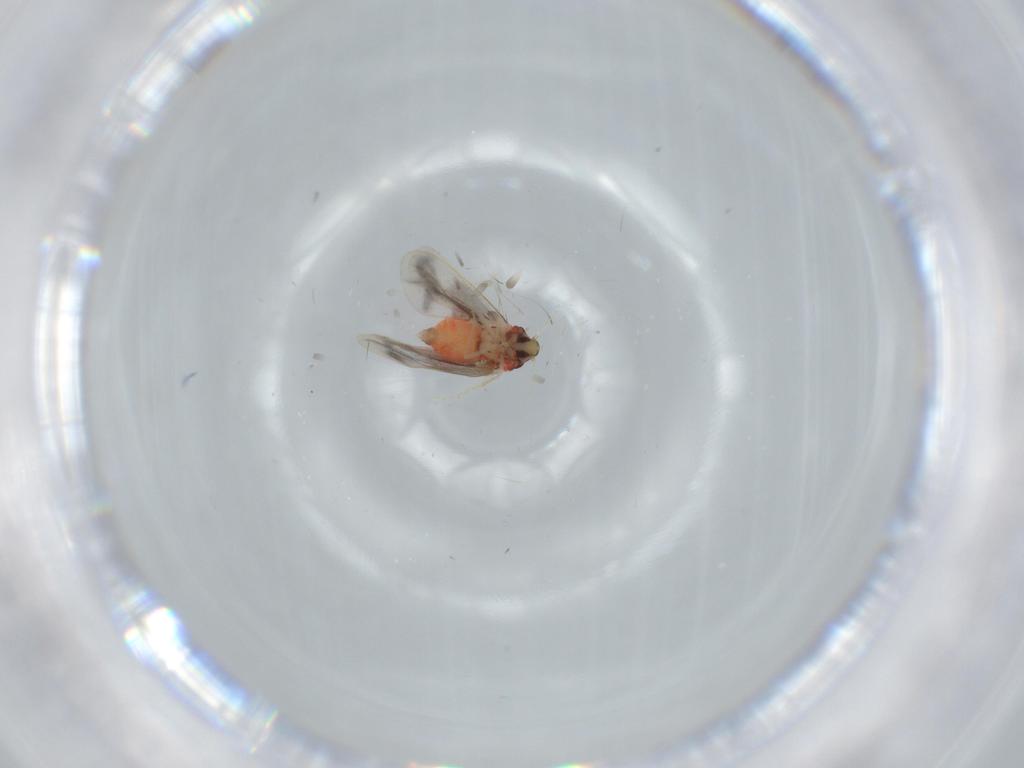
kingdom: Animalia
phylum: Arthropoda
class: Insecta
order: Hemiptera
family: Aleyrodidae
